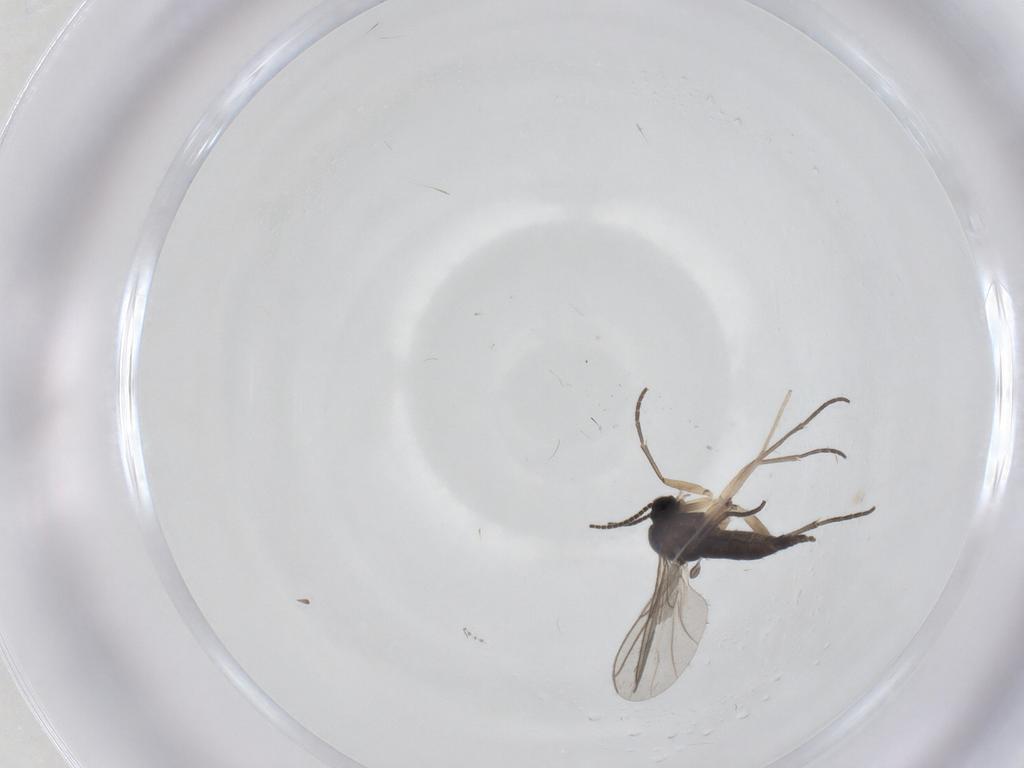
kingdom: Animalia
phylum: Arthropoda
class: Insecta
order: Diptera
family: Sciaridae
